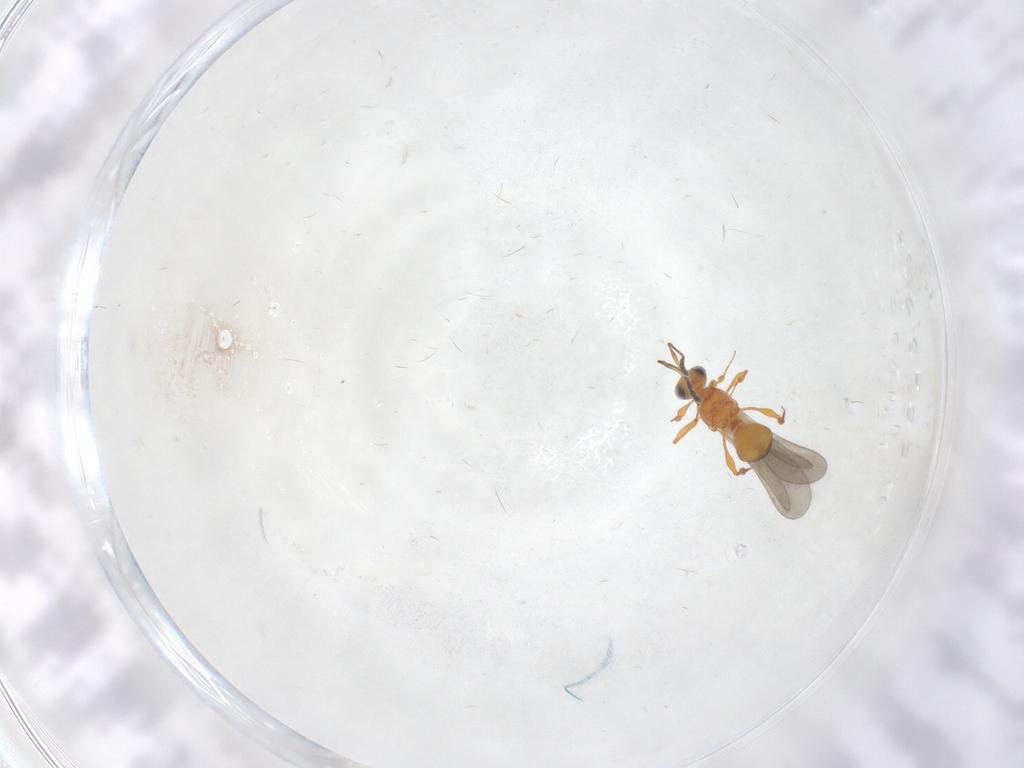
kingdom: Animalia
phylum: Arthropoda
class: Insecta
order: Hymenoptera
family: Platygastridae
